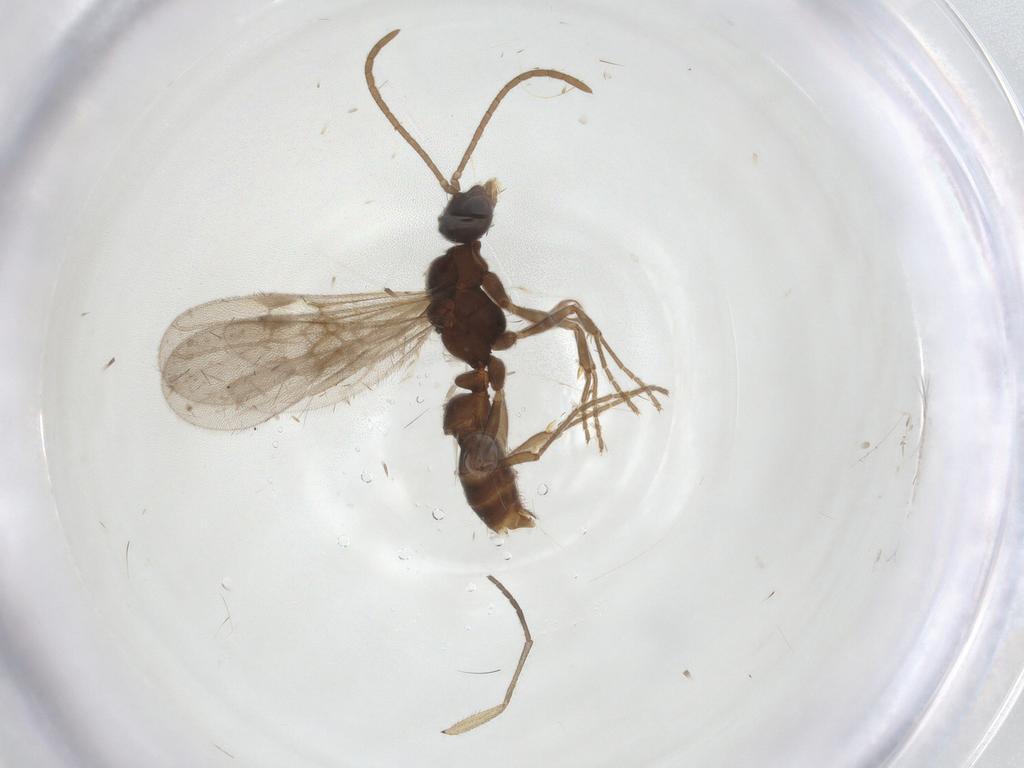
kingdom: Animalia
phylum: Arthropoda
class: Insecta
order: Hymenoptera
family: Formicidae
